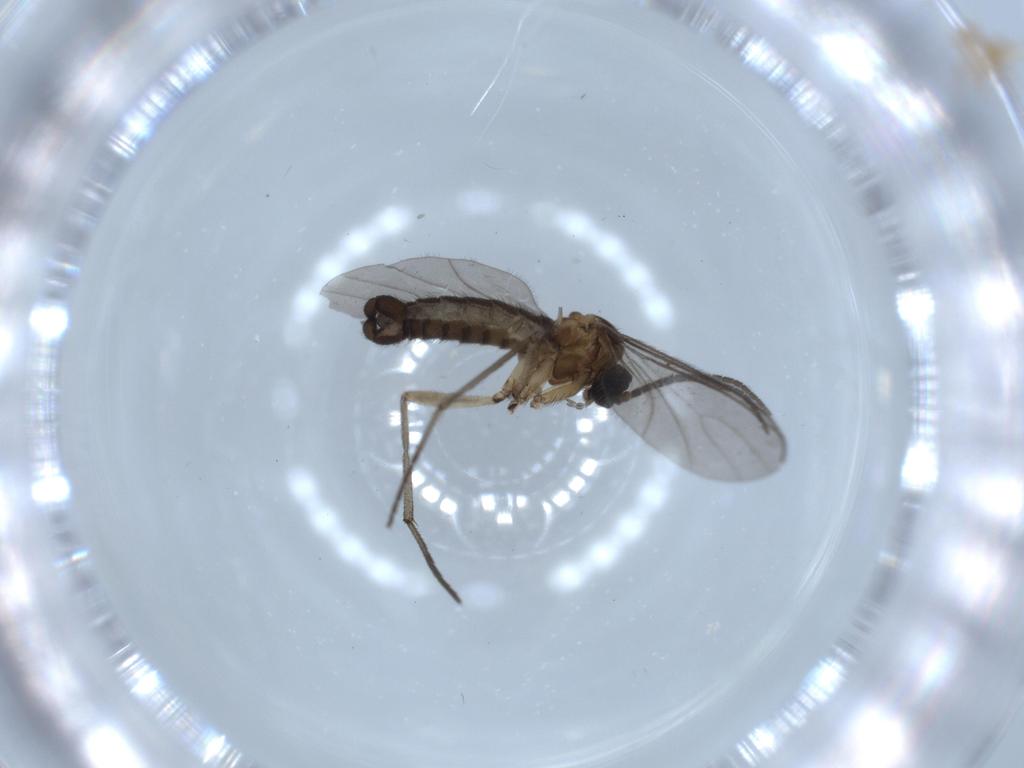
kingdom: Animalia
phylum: Arthropoda
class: Insecta
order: Diptera
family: Sciaridae
